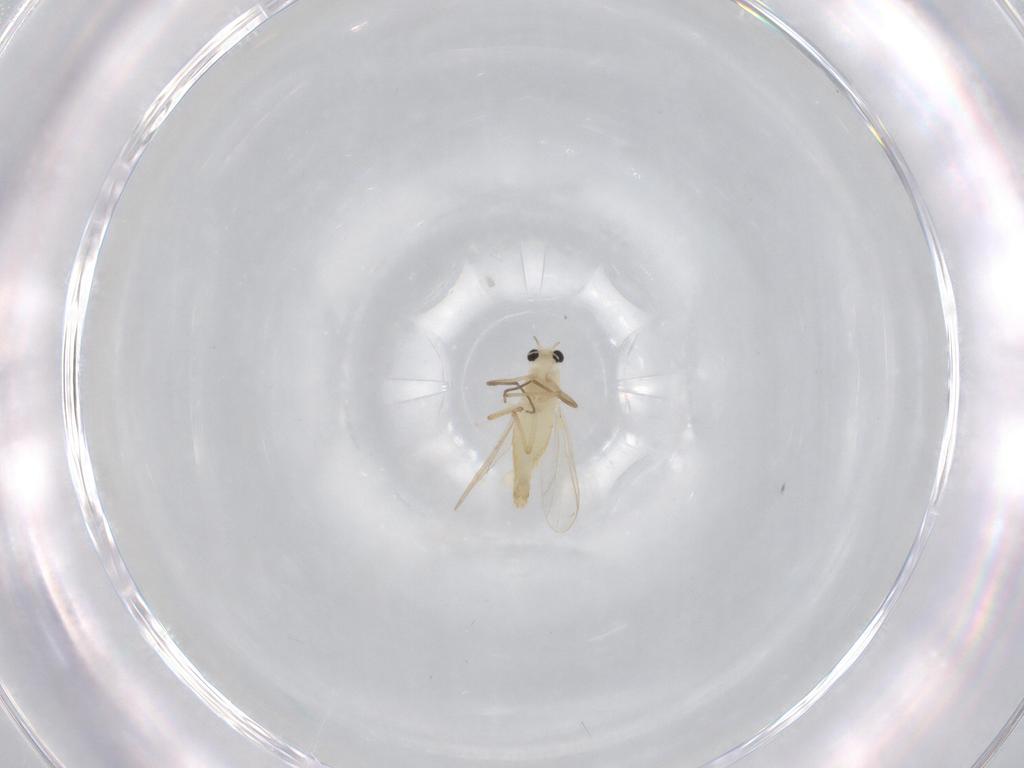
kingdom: Animalia
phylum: Arthropoda
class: Insecta
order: Diptera
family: Chironomidae
